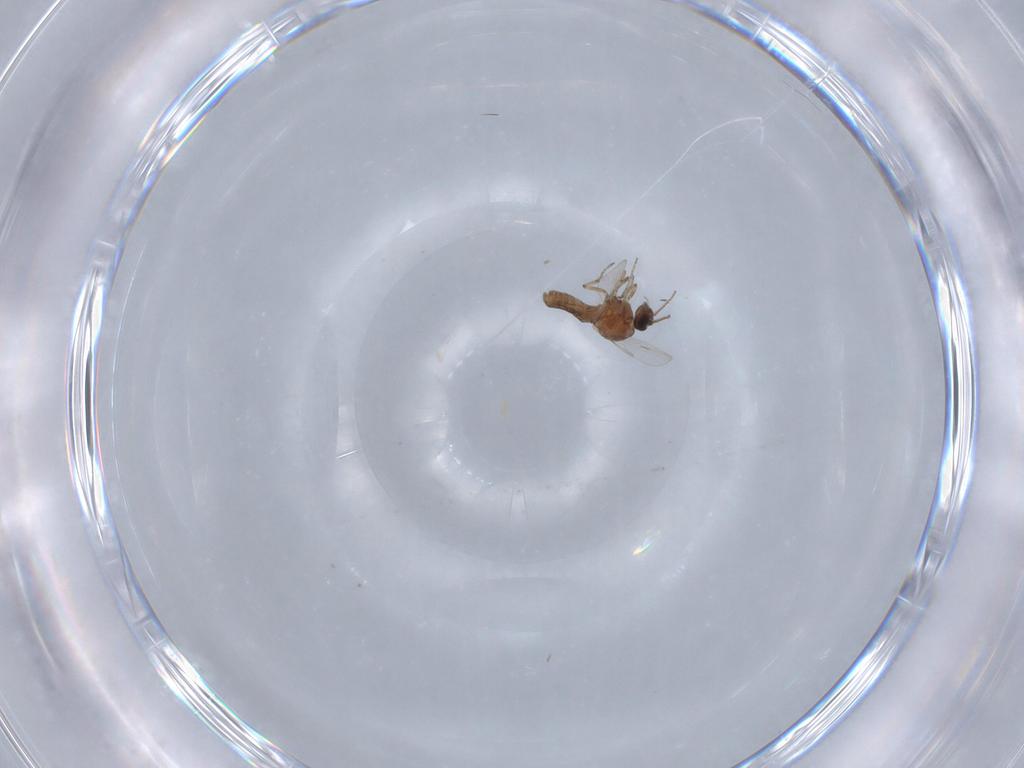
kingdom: Animalia
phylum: Arthropoda
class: Insecta
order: Diptera
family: Ceratopogonidae
